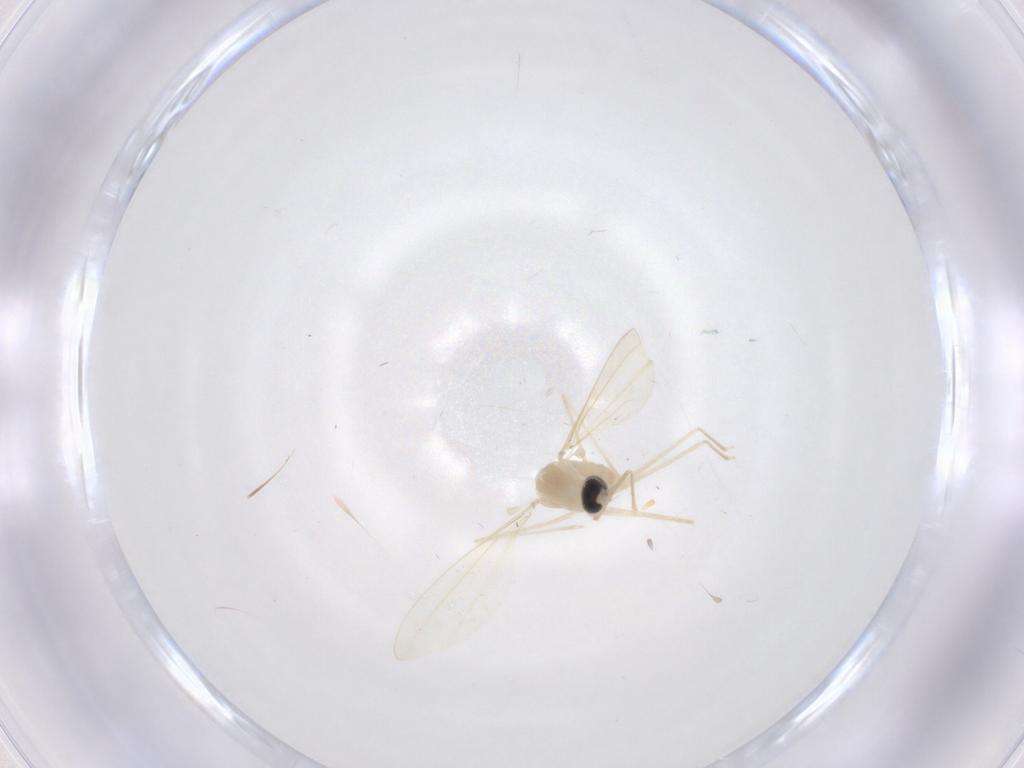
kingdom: Animalia
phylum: Arthropoda
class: Insecta
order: Diptera
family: Cecidomyiidae
